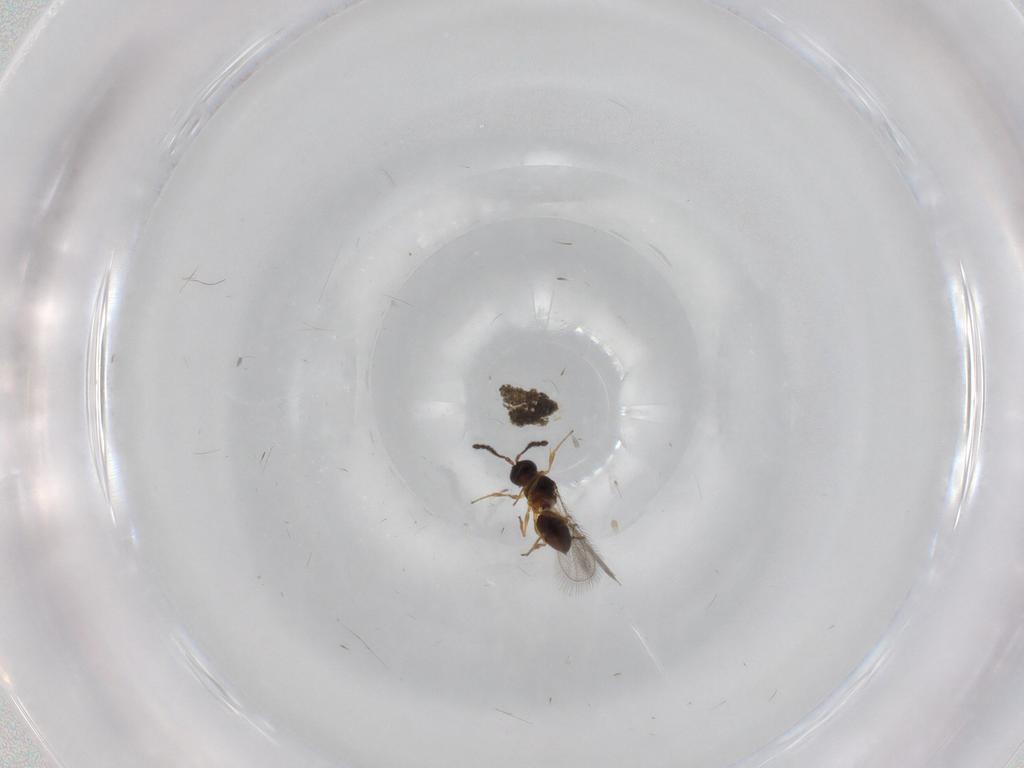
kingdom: Animalia
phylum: Arthropoda
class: Insecta
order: Hymenoptera
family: Figitidae
